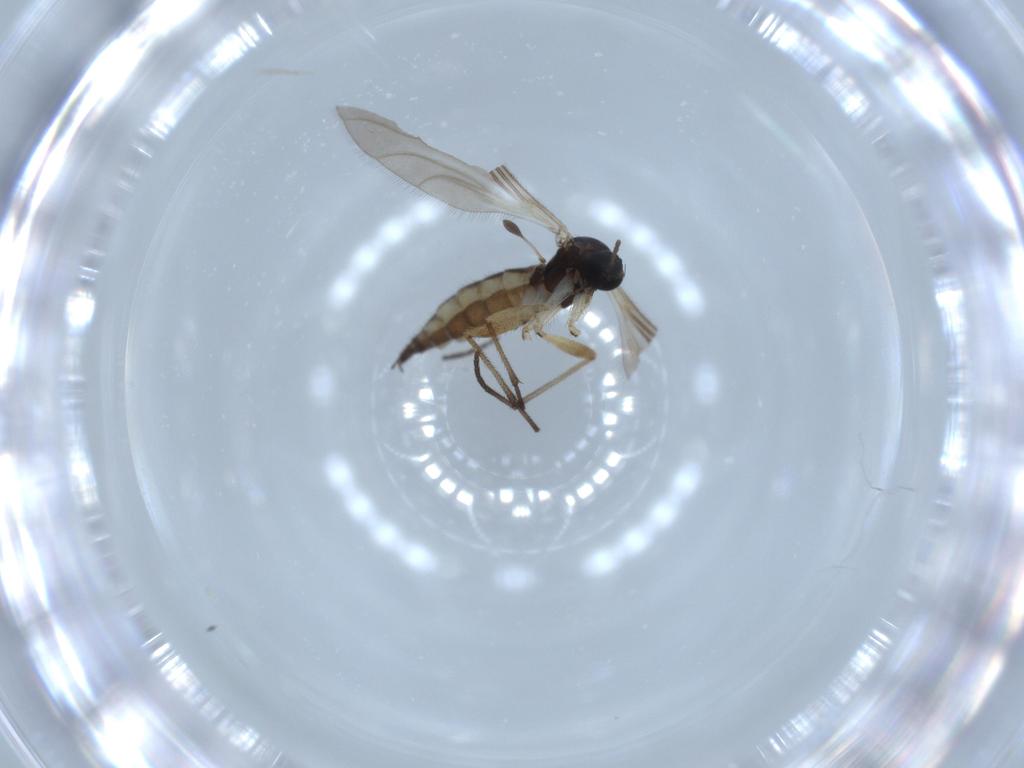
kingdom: Animalia
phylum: Arthropoda
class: Insecta
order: Diptera
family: Sciaridae
